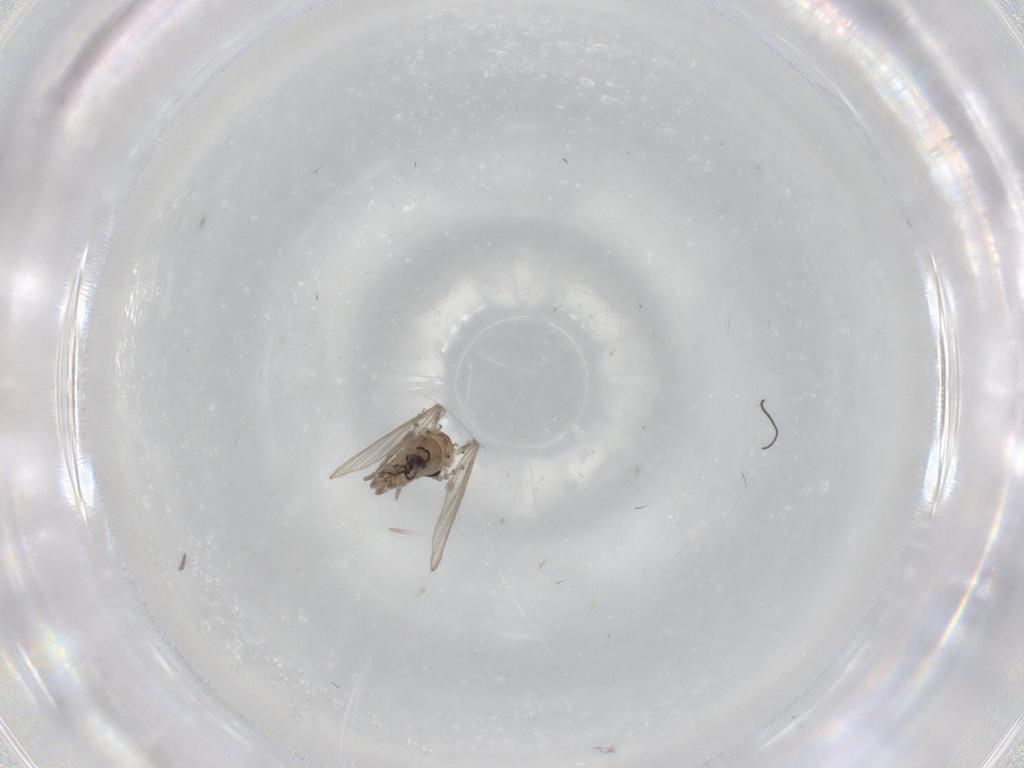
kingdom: Animalia
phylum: Arthropoda
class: Insecta
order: Diptera
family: Psychodidae
